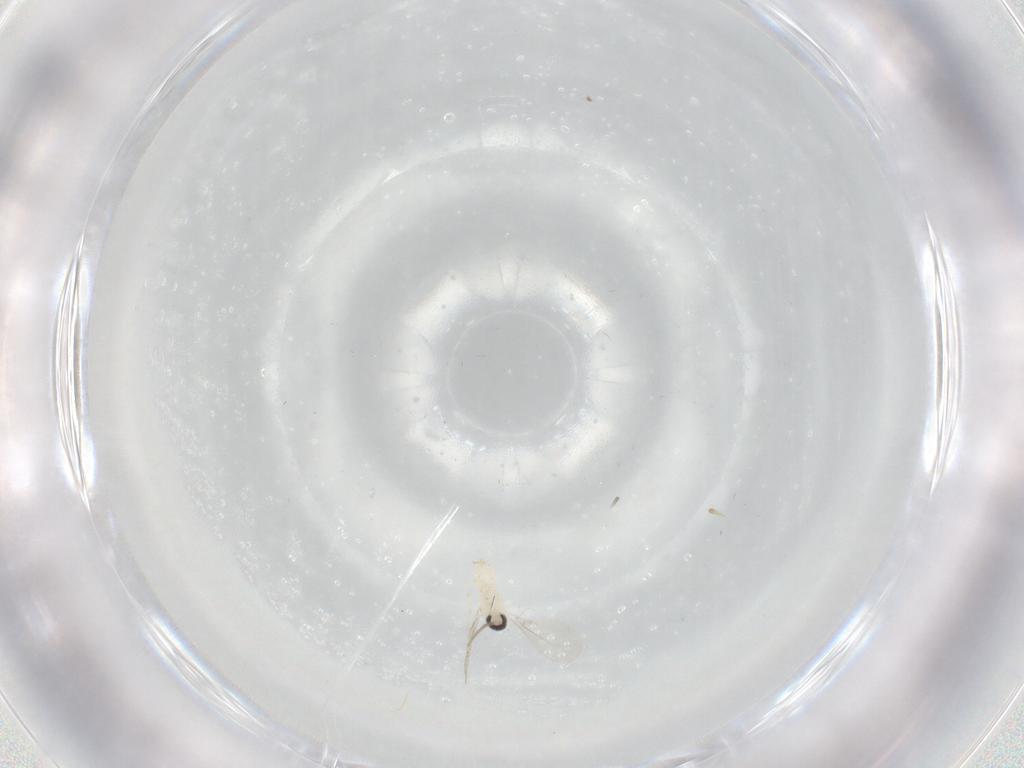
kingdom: Animalia
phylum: Arthropoda
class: Insecta
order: Diptera
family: Cecidomyiidae
